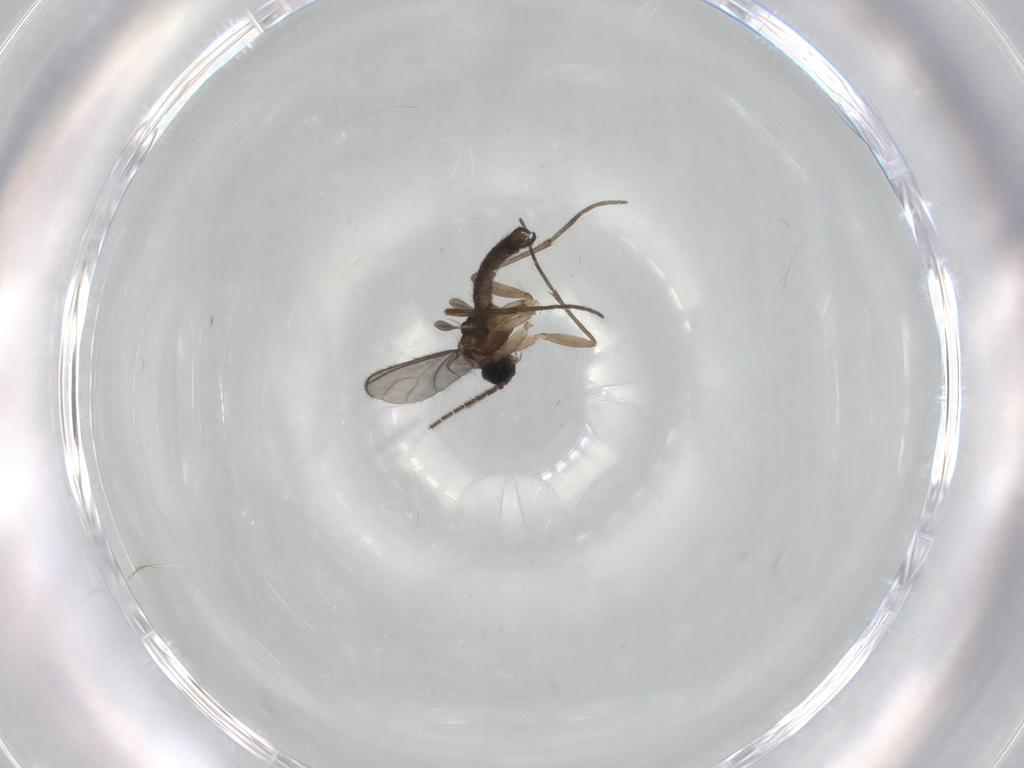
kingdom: Animalia
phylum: Arthropoda
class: Insecta
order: Diptera
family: Sciaridae
